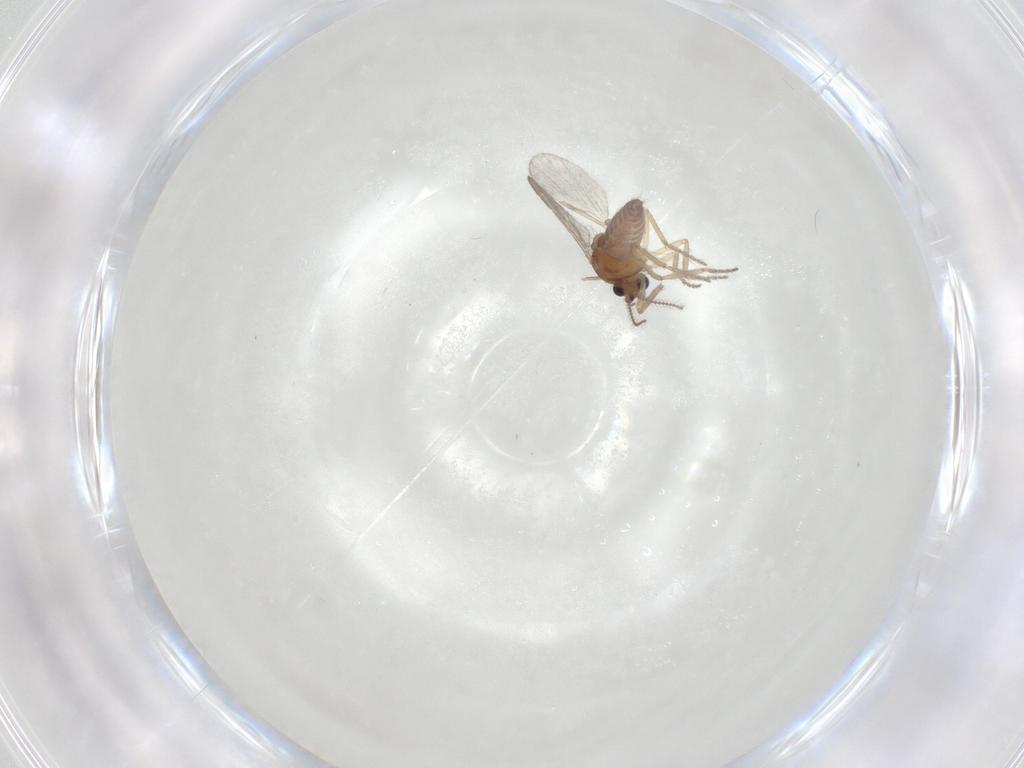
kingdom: Animalia
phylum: Arthropoda
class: Insecta
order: Diptera
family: Ceratopogonidae
